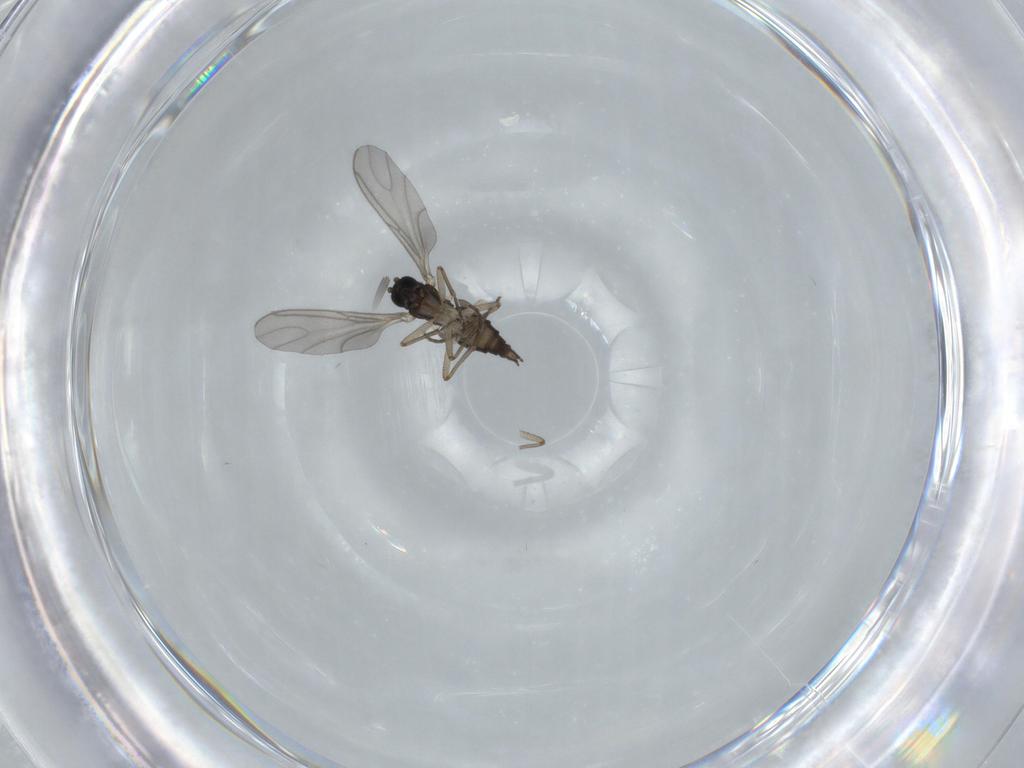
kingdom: Animalia
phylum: Arthropoda
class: Insecta
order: Diptera
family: Sciaridae
